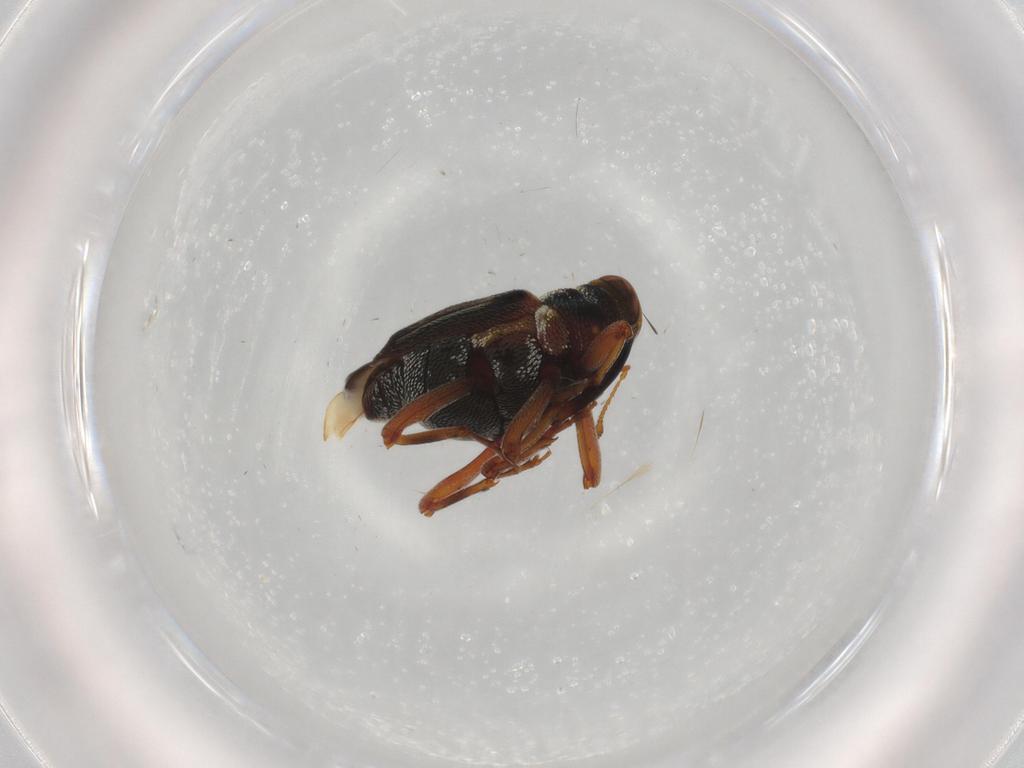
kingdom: Animalia
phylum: Arthropoda
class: Insecta
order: Coleoptera
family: Curculionidae
